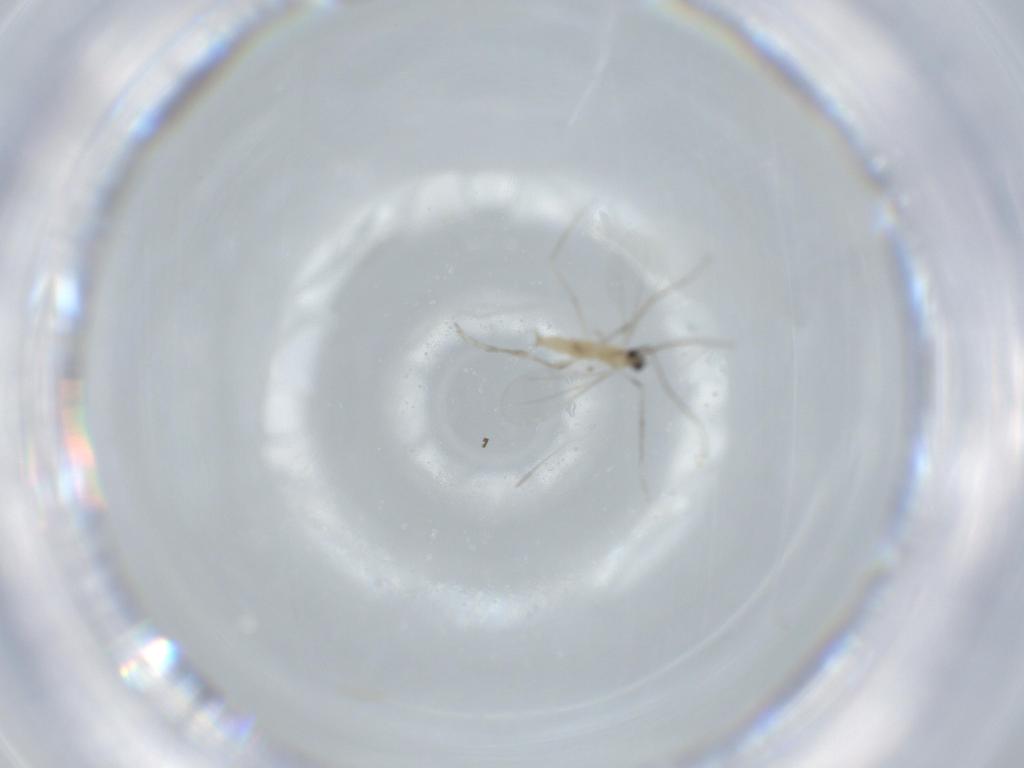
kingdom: Animalia
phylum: Arthropoda
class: Insecta
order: Diptera
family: Cecidomyiidae
